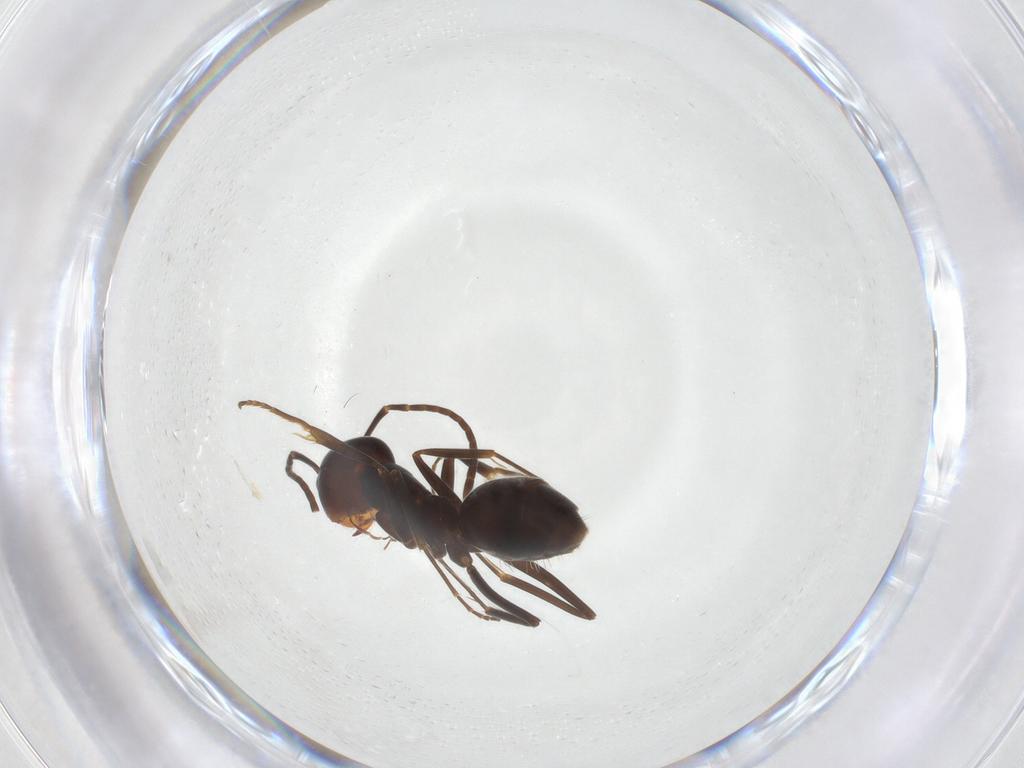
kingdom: Animalia
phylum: Arthropoda
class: Insecta
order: Hymenoptera
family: Formicidae
